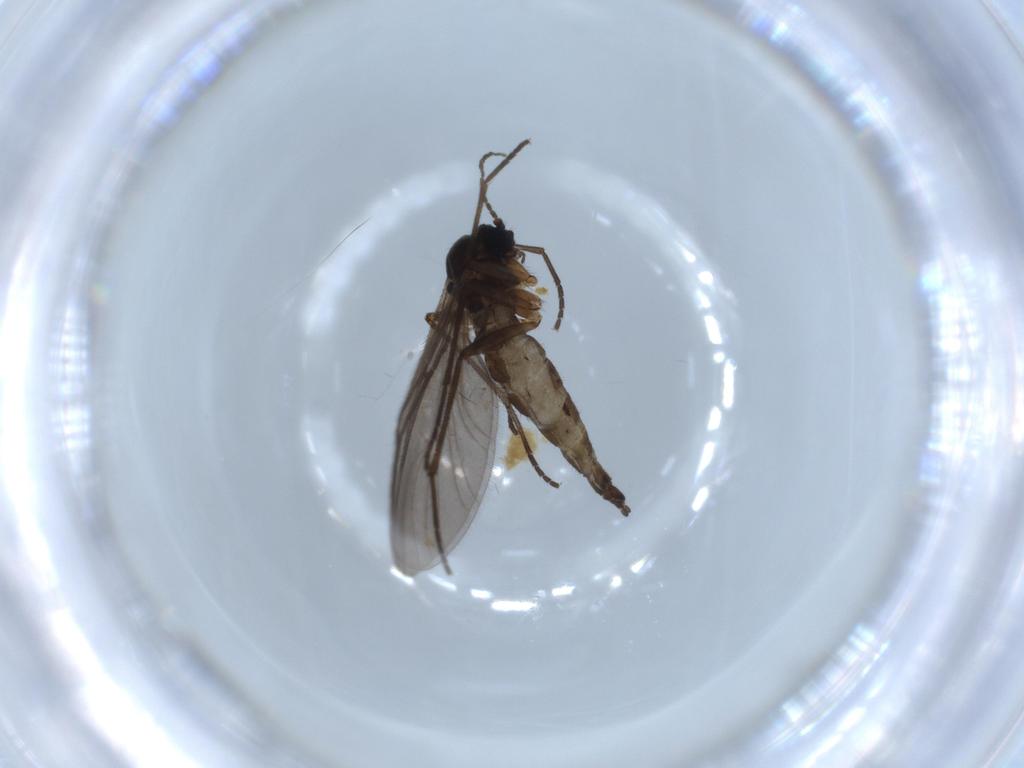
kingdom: Animalia
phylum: Arthropoda
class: Insecta
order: Diptera
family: Sciaridae
